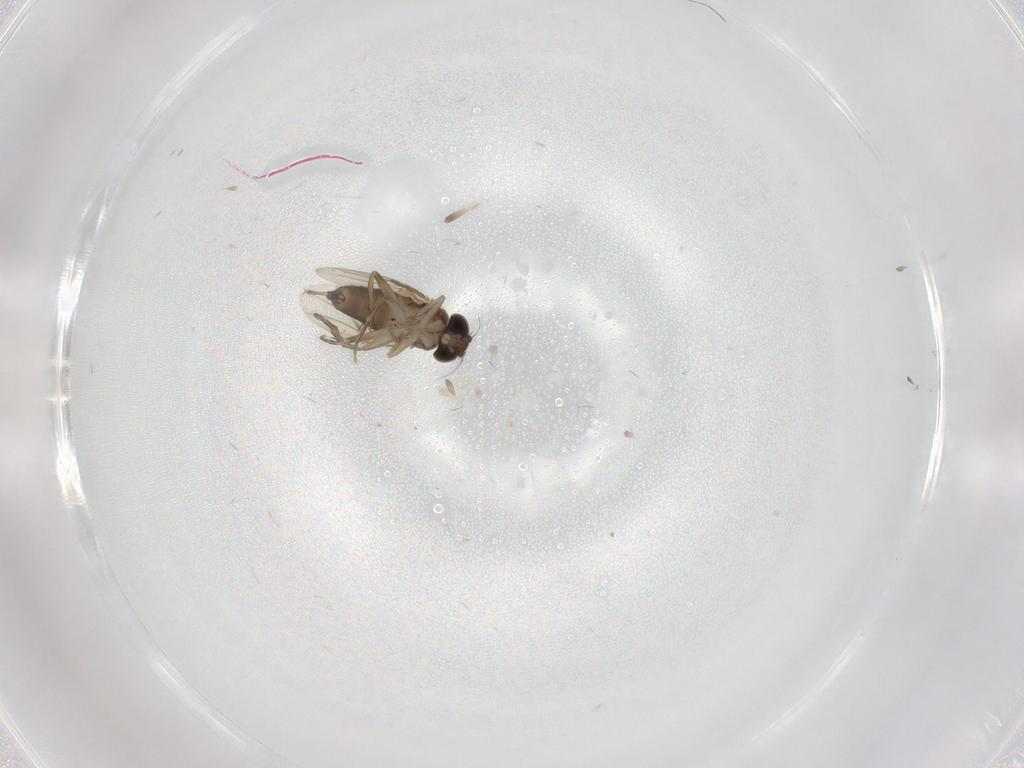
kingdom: Animalia
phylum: Arthropoda
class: Insecta
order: Diptera
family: Phoridae
